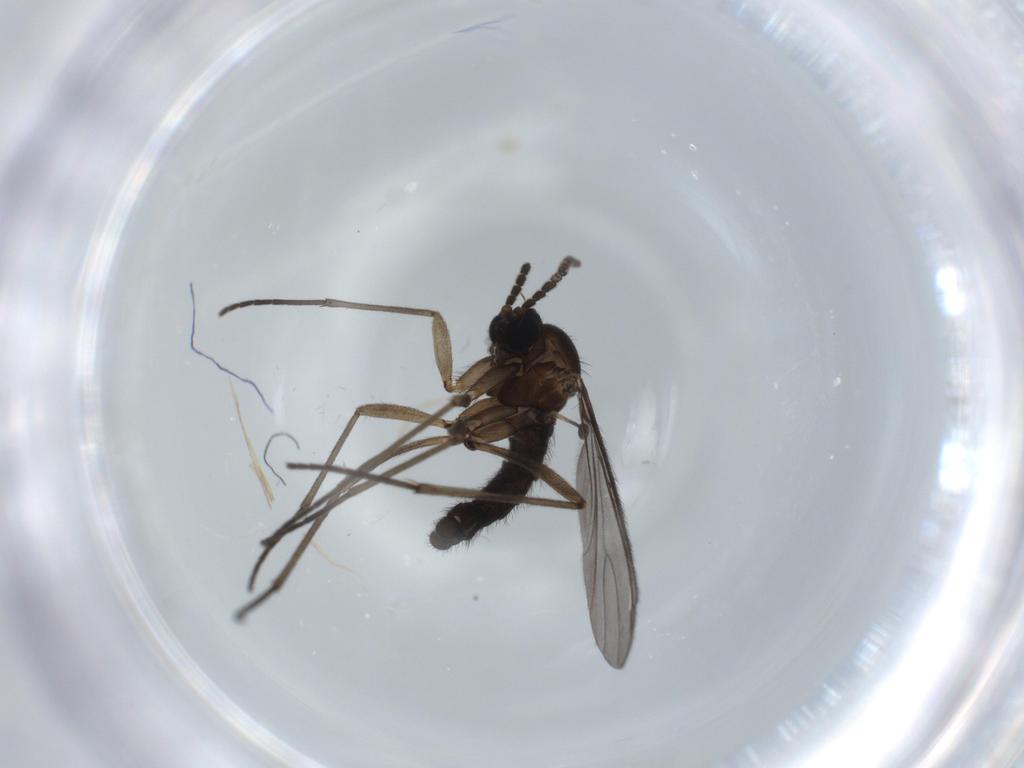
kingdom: Animalia
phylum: Arthropoda
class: Insecta
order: Diptera
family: Sciaridae
